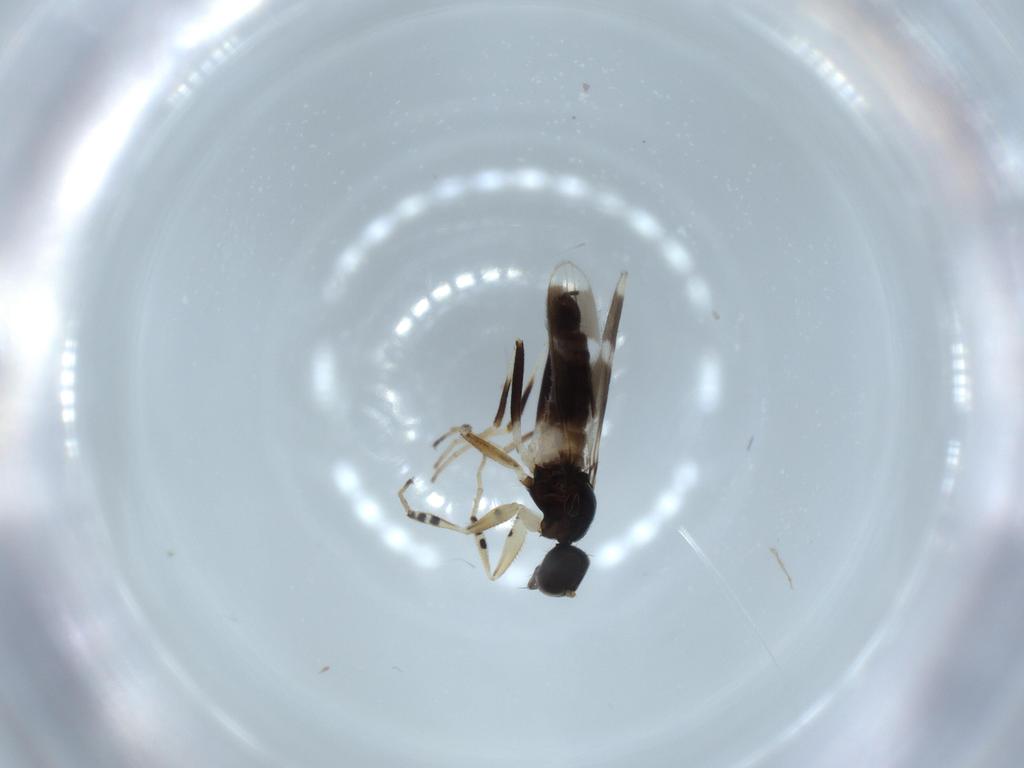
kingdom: Animalia
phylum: Arthropoda
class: Insecta
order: Diptera
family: Hybotidae
